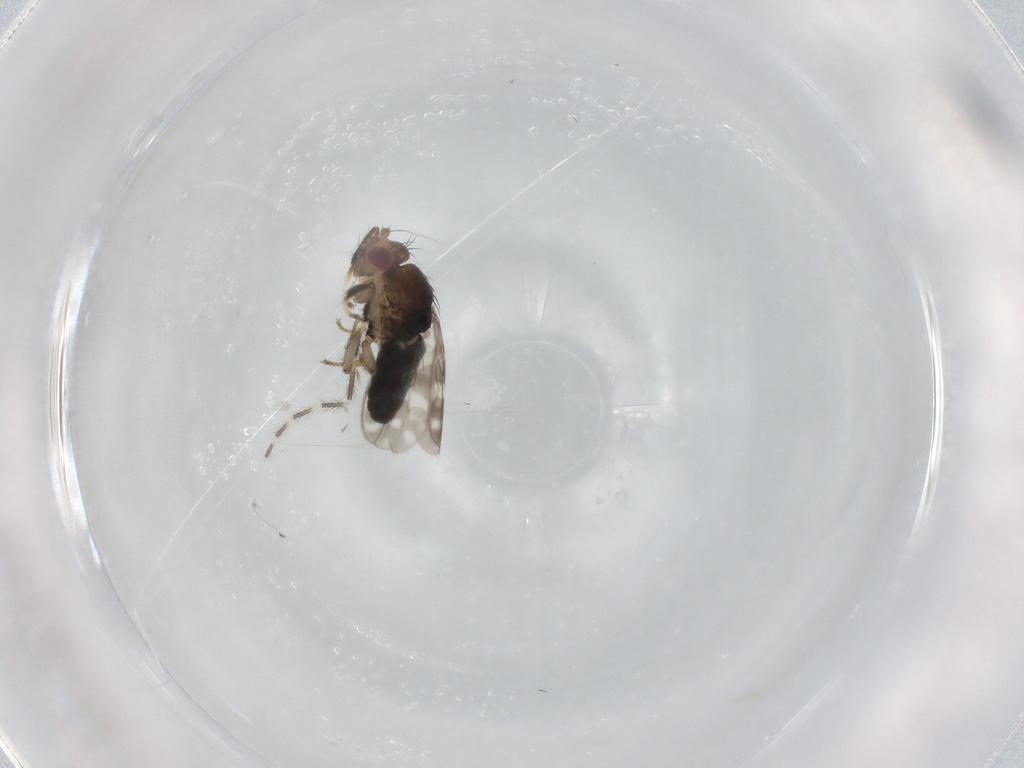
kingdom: Animalia
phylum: Arthropoda
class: Insecta
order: Diptera
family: Sphaeroceridae
